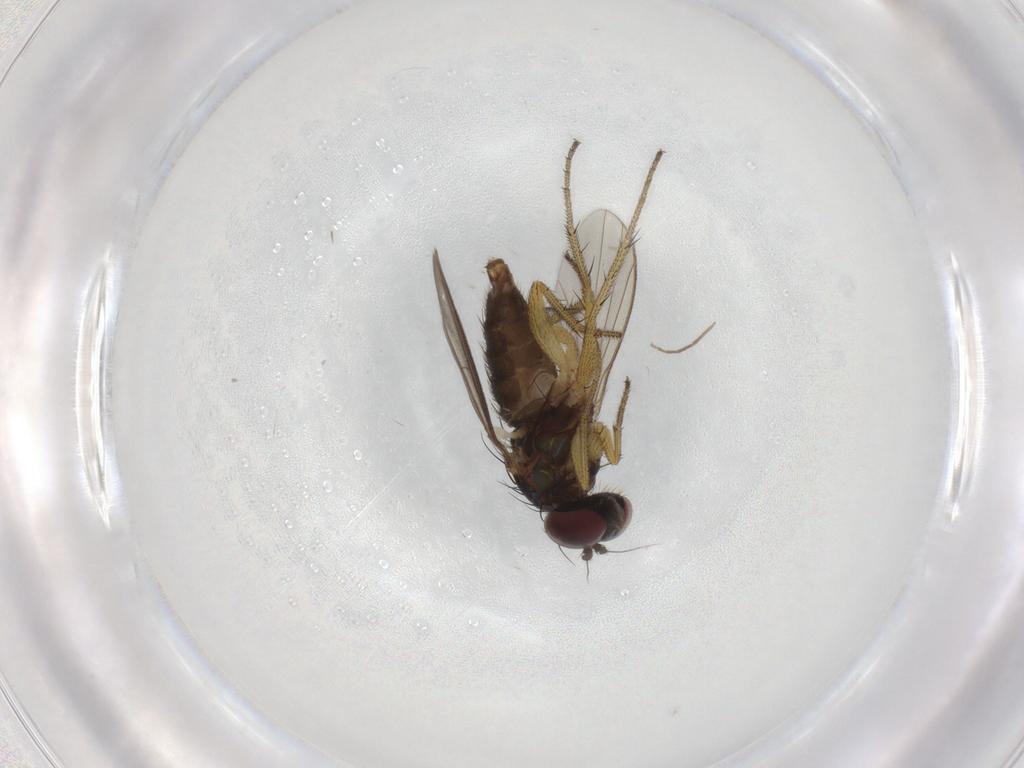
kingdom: Animalia
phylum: Arthropoda
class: Insecta
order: Diptera
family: Dolichopodidae
